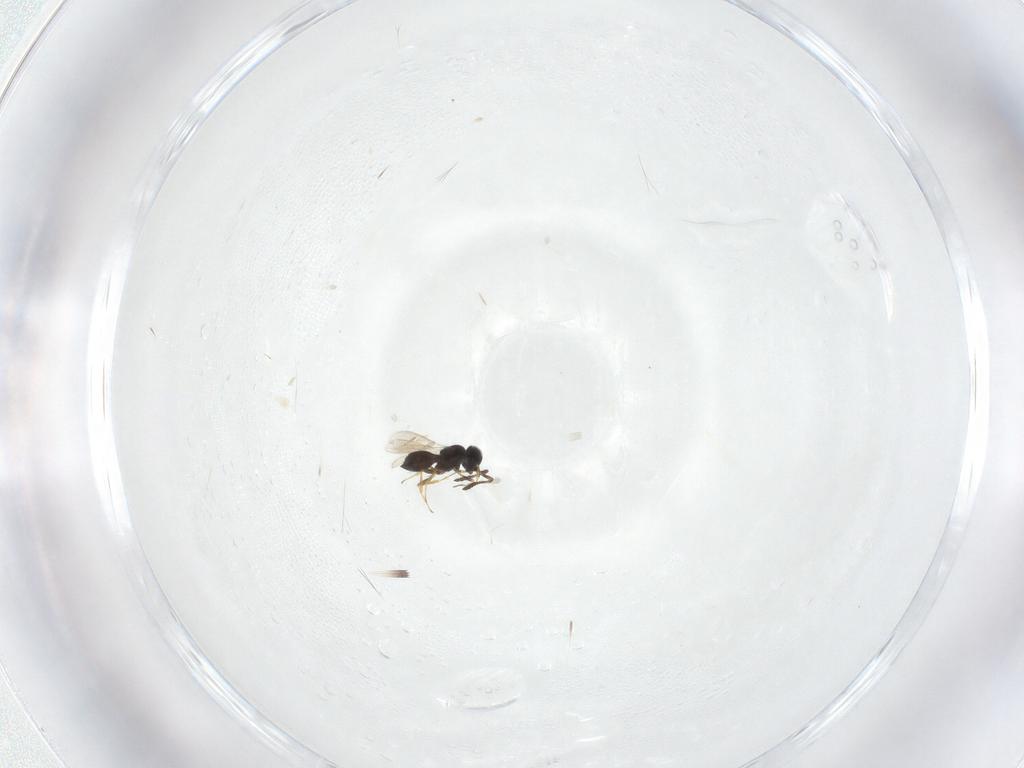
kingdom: Animalia
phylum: Arthropoda
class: Insecta
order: Hymenoptera
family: Scelionidae
